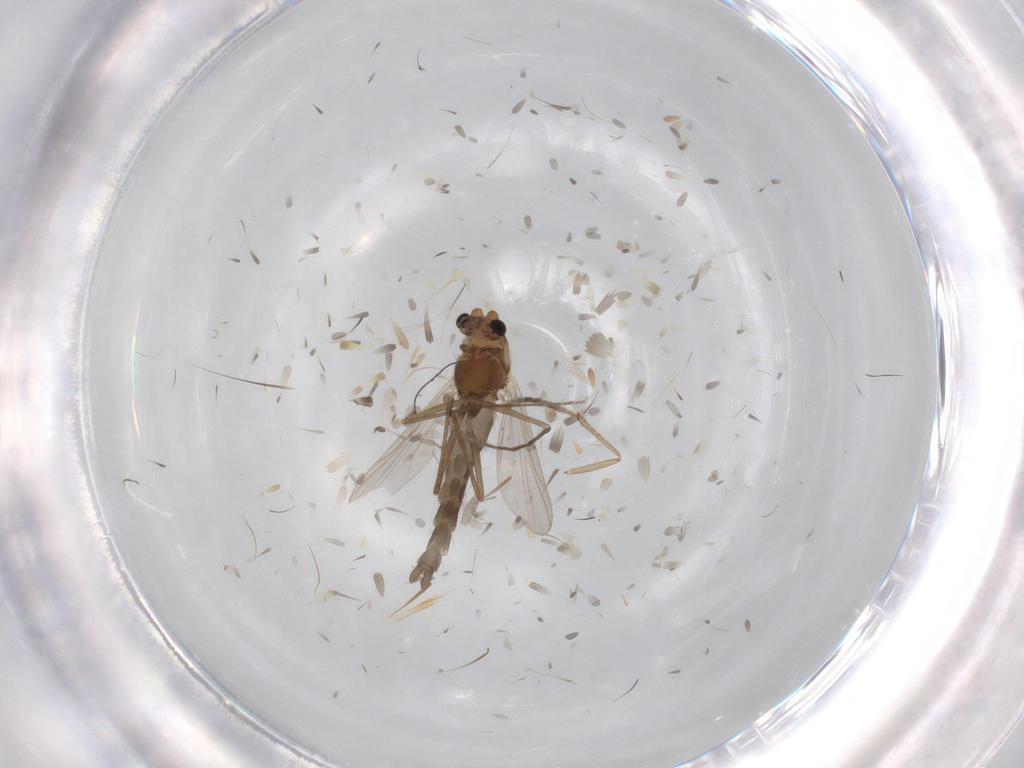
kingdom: Animalia
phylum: Arthropoda
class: Insecta
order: Diptera
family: Chironomidae
